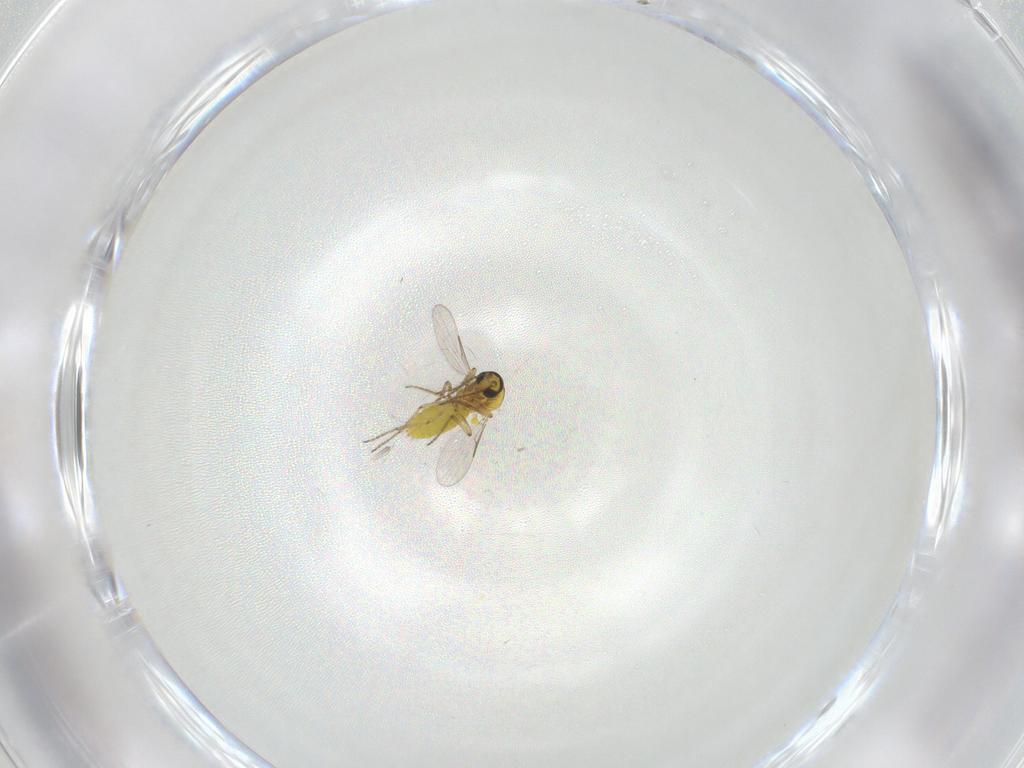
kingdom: Animalia
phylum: Arthropoda
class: Insecta
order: Diptera
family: Ceratopogonidae
